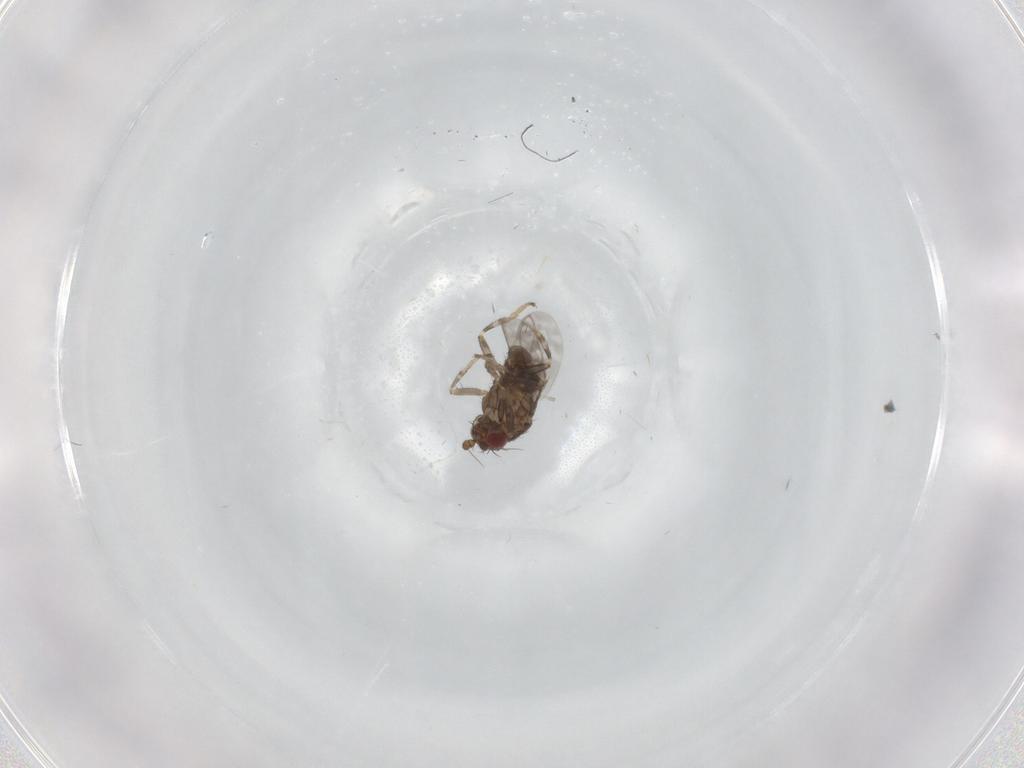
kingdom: Animalia
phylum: Arthropoda
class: Insecta
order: Diptera
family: Sphaeroceridae
